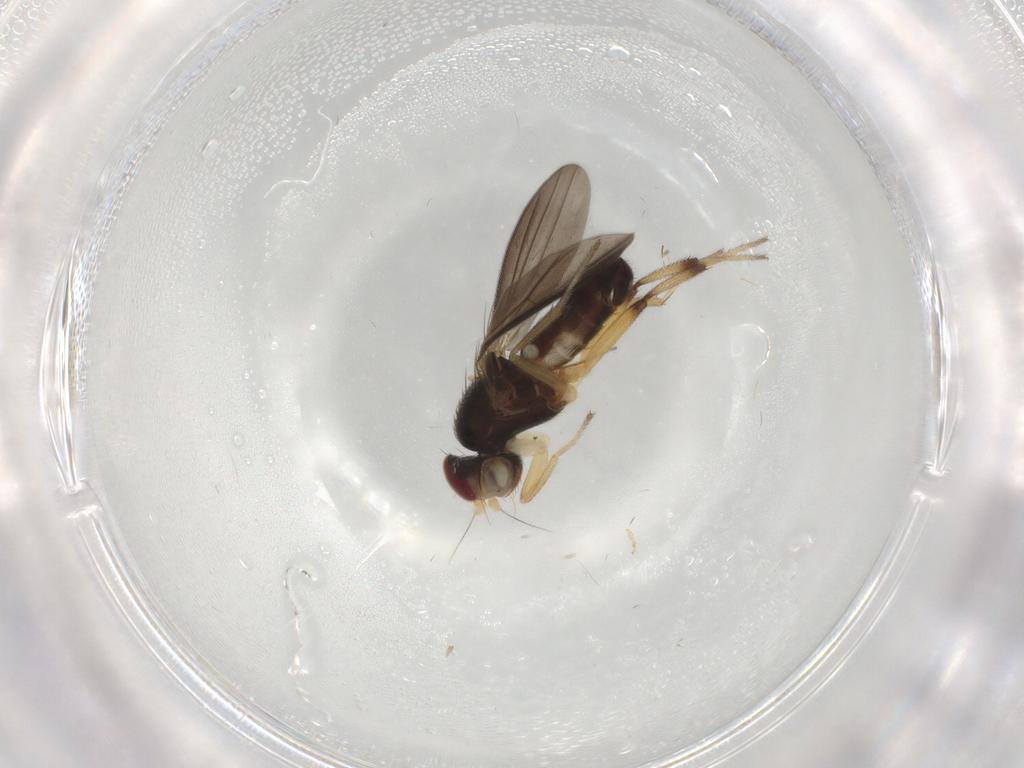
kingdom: Animalia
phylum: Arthropoda
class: Insecta
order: Diptera
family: Ceratopogonidae
